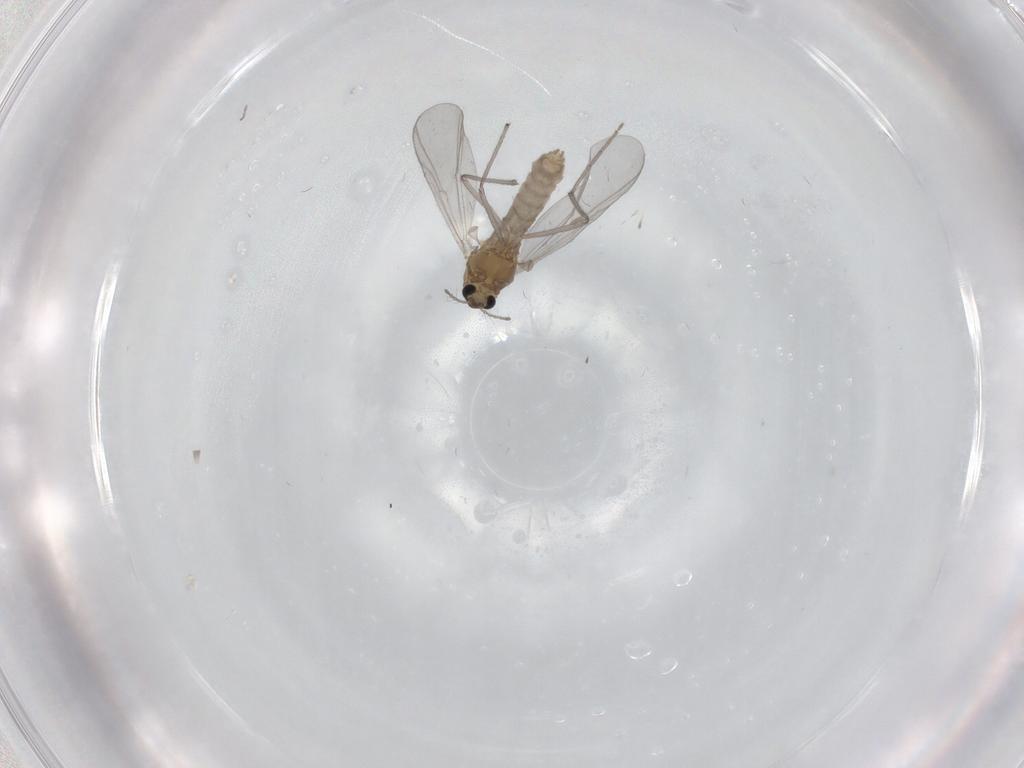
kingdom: Animalia
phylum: Arthropoda
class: Insecta
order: Diptera
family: Chironomidae
